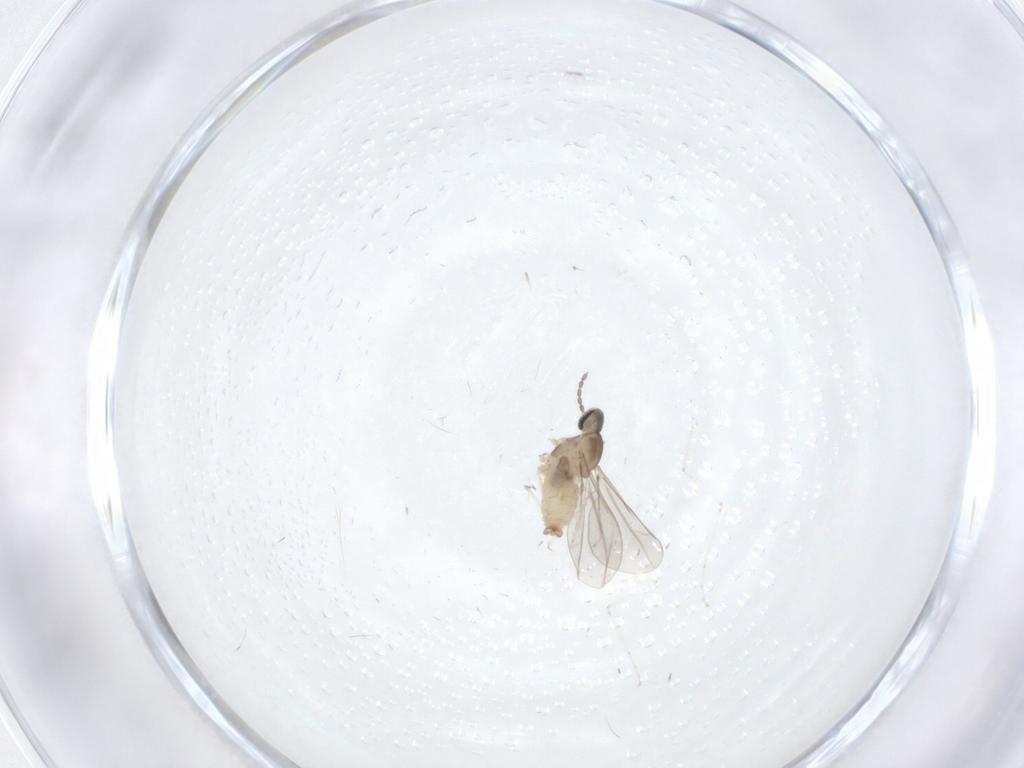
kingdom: Animalia
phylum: Arthropoda
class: Insecta
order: Diptera
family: Cecidomyiidae
